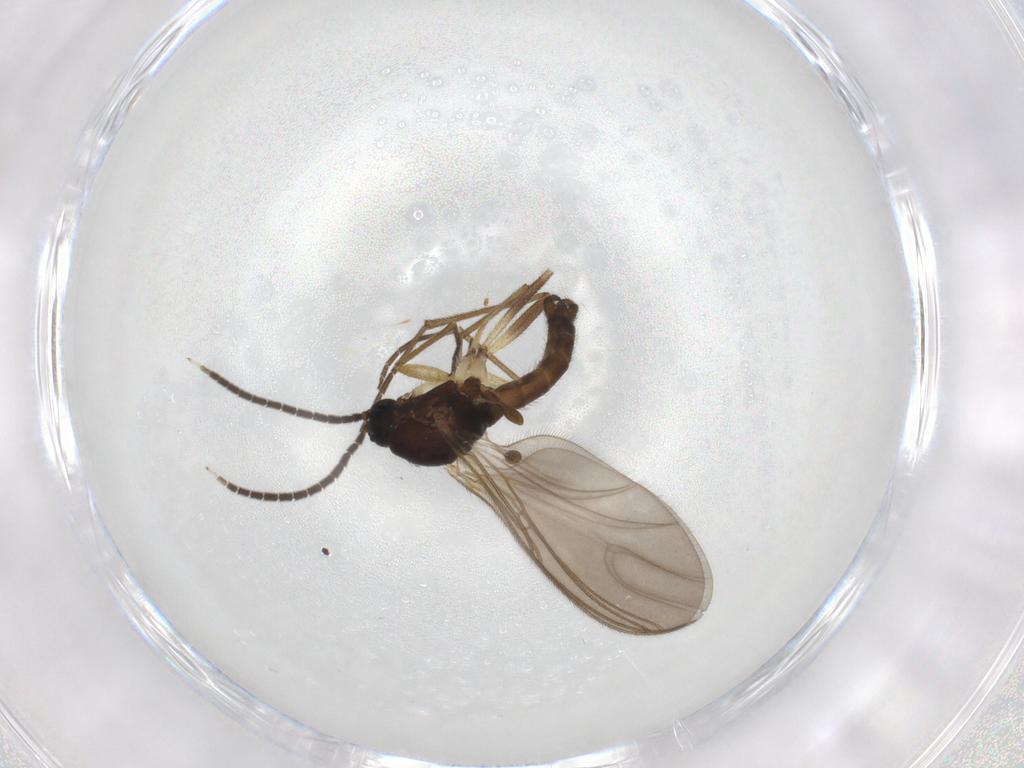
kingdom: Animalia
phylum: Arthropoda
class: Insecta
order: Diptera
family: Sciaridae
